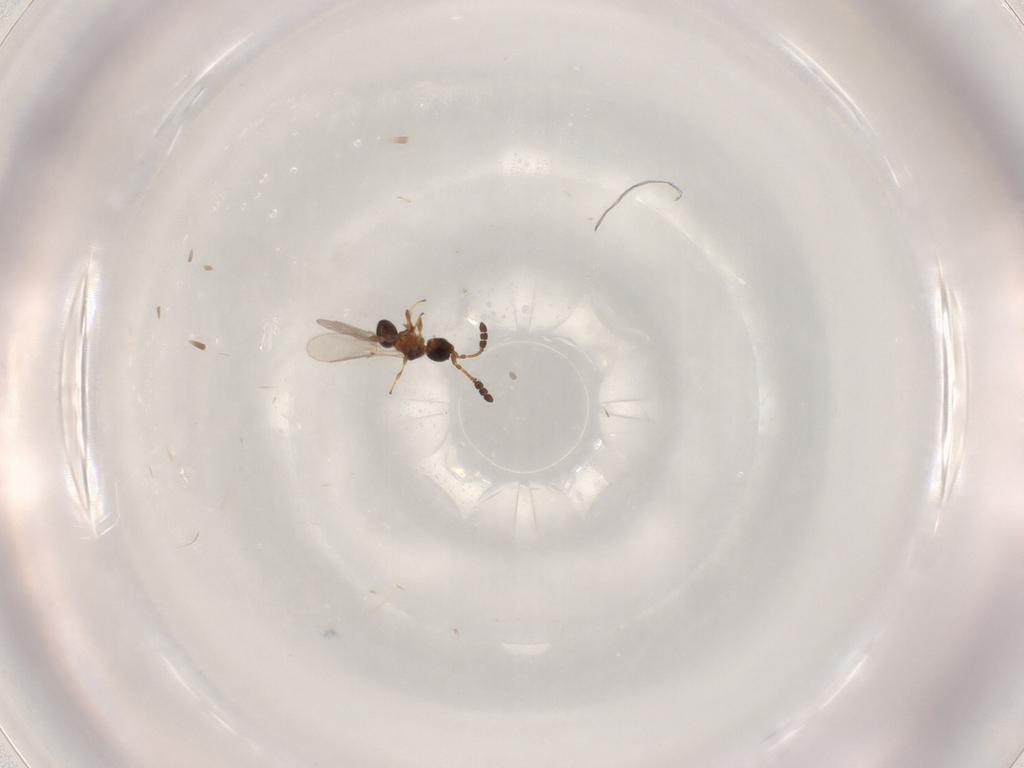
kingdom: Animalia
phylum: Arthropoda
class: Insecta
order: Hymenoptera
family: Diapriidae
